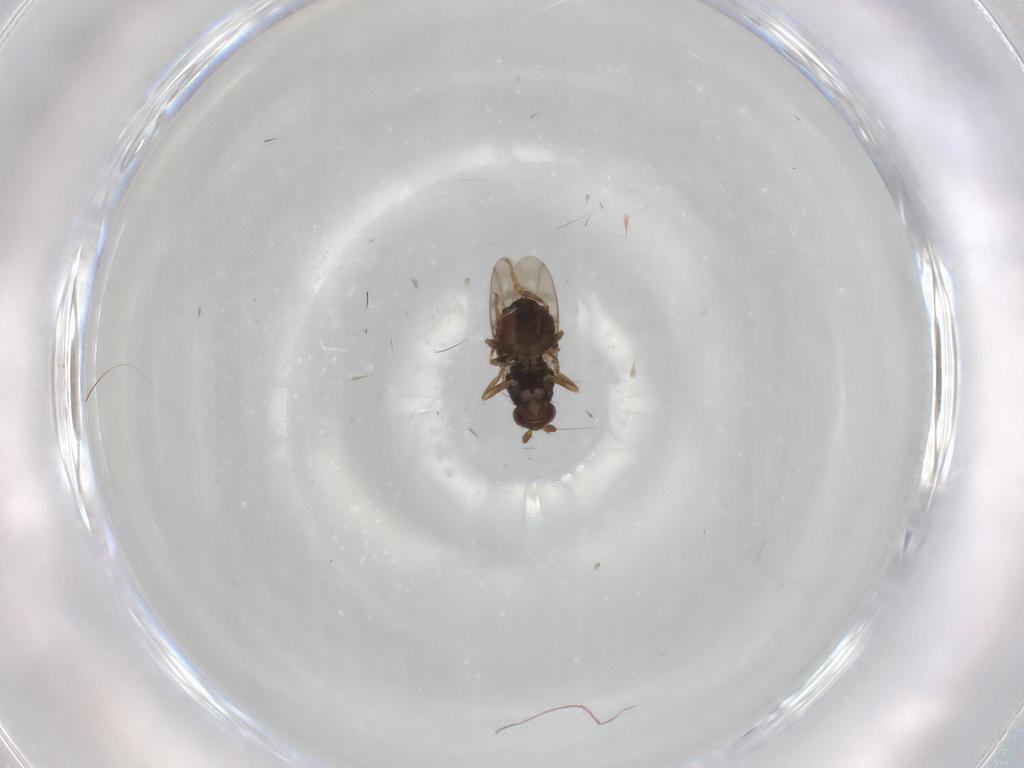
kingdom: Animalia
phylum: Arthropoda
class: Insecta
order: Diptera
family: Sphaeroceridae
